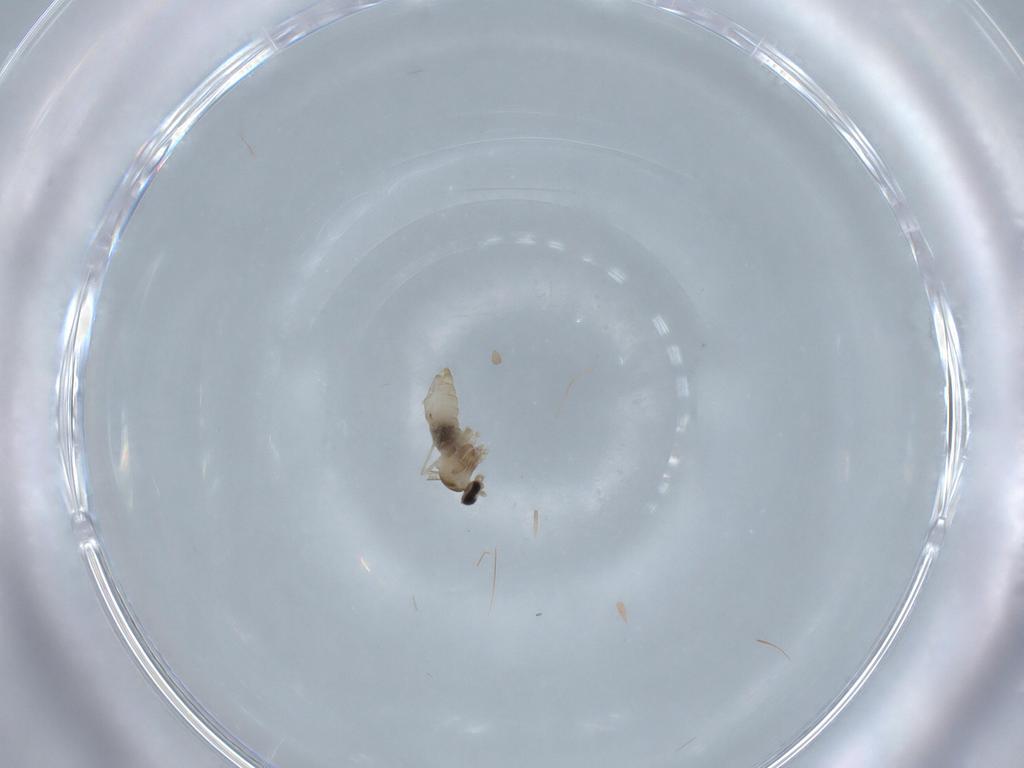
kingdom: Animalia
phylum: Arthropoda
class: Insecta
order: Diptera
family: Cecidomyiidae
